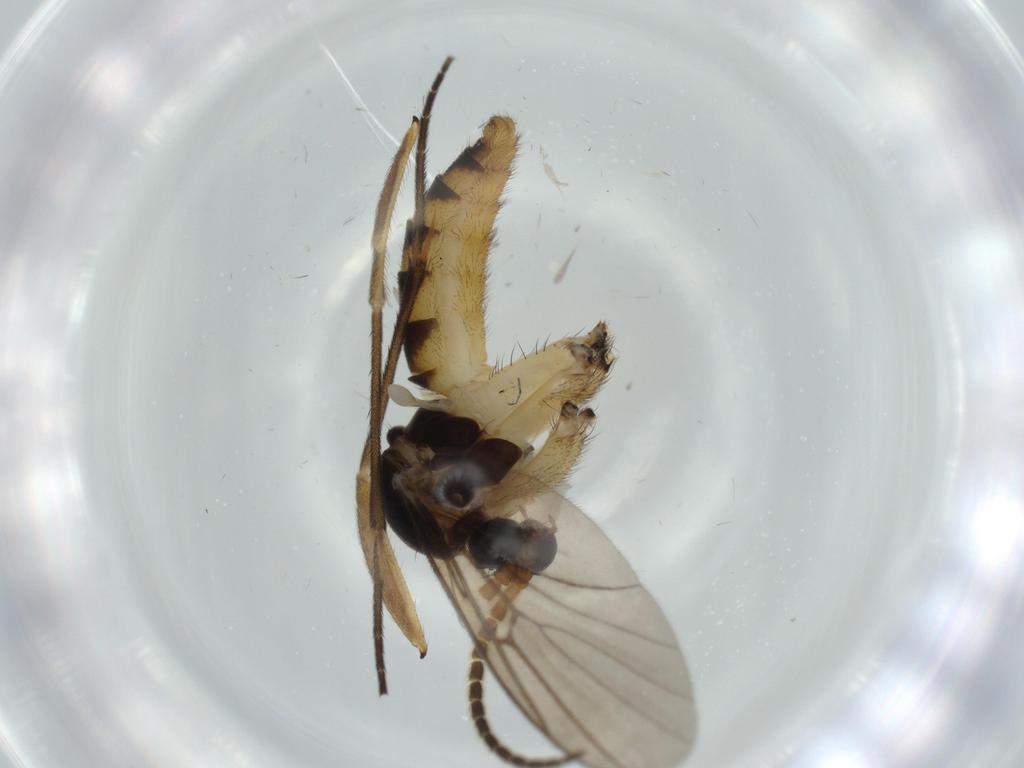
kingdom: Animalia
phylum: Arthropoda
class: Insecta
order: Diptera
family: Cecidomyiidae
